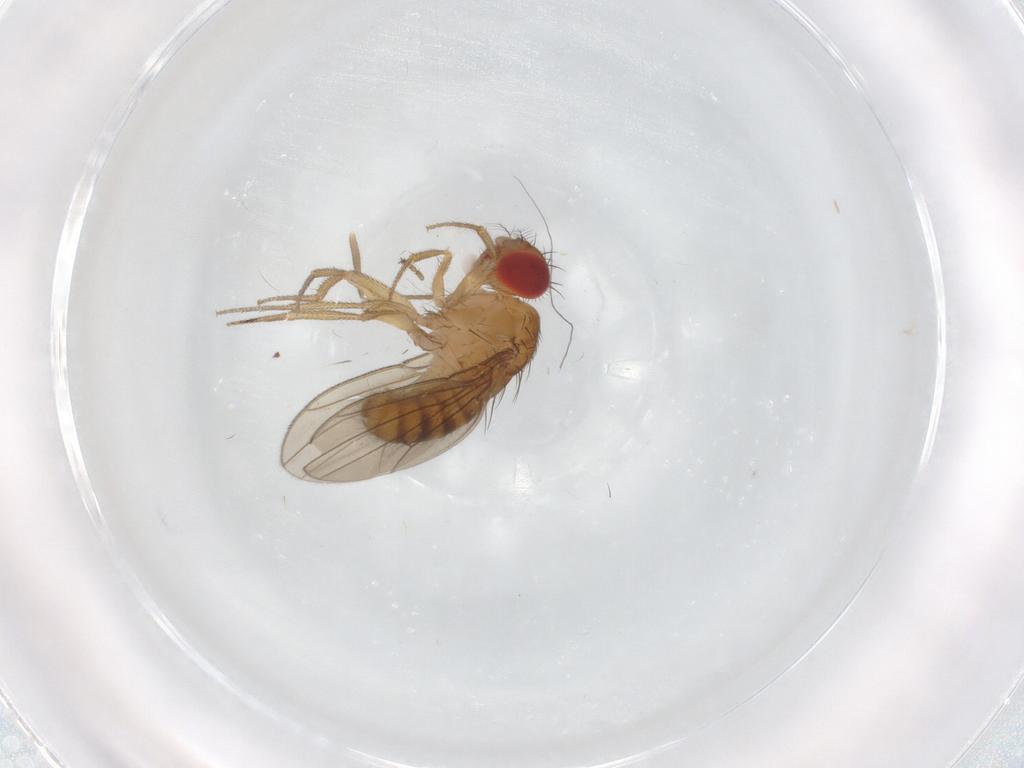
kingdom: Animalia
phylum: Arthropoda
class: Insecta
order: Diptera
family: Drosophilidae
